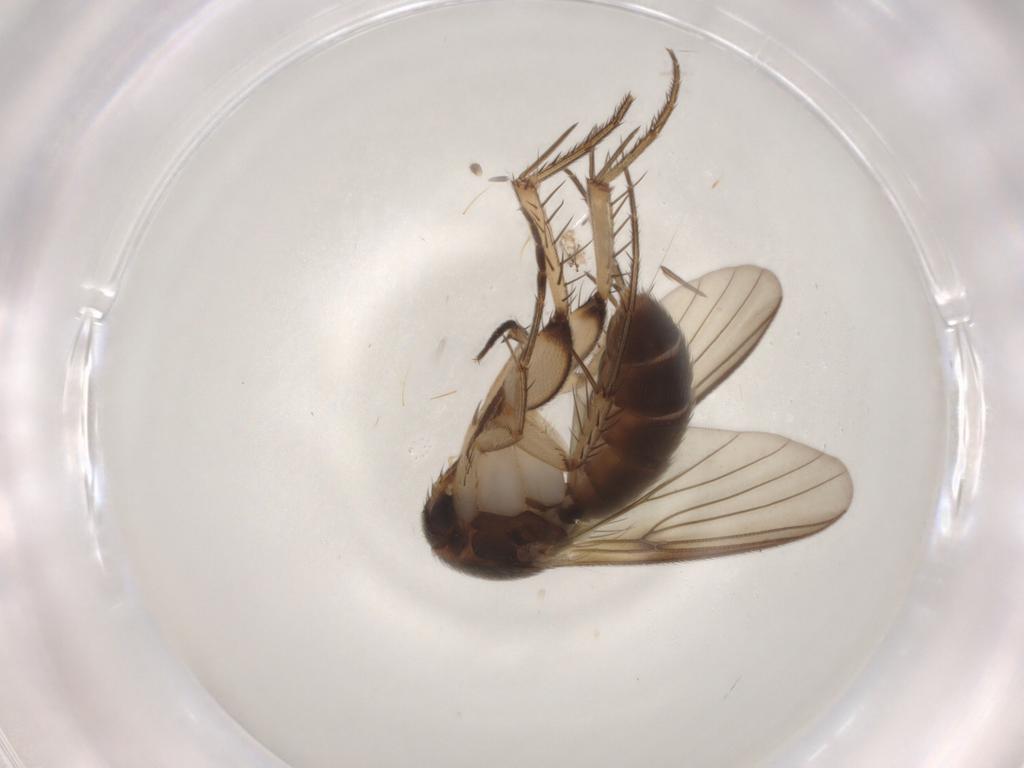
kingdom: Animalia
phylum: Arthropoda
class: Insecta
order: Diptera
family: Mycetophilidae
